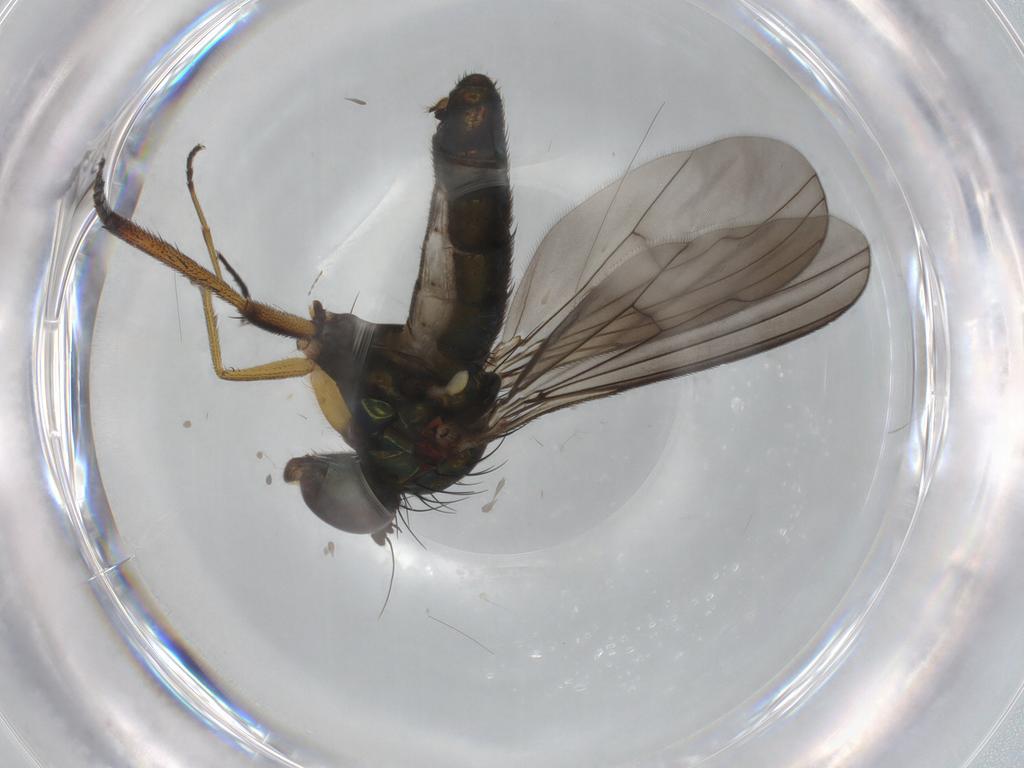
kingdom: Animalia
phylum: Arthropoda
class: Insecta
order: Diptera
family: Dolichopodidae
